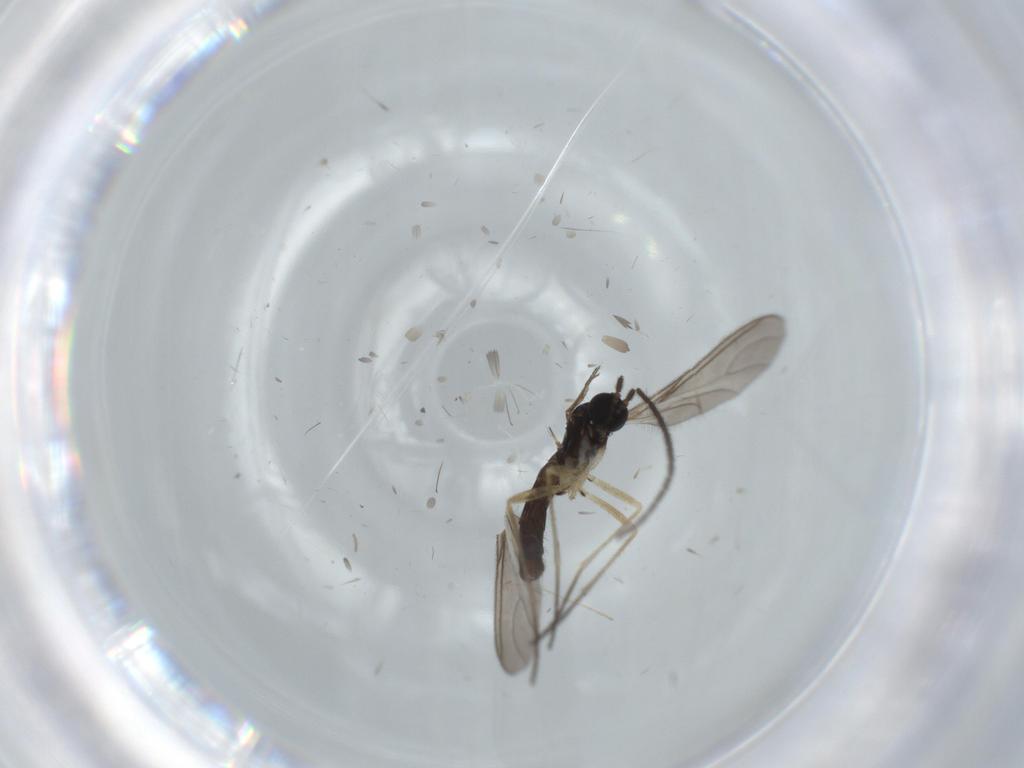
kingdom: Animalia
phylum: Arthropoda
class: Insecta
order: Diptera
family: Sciaridae
